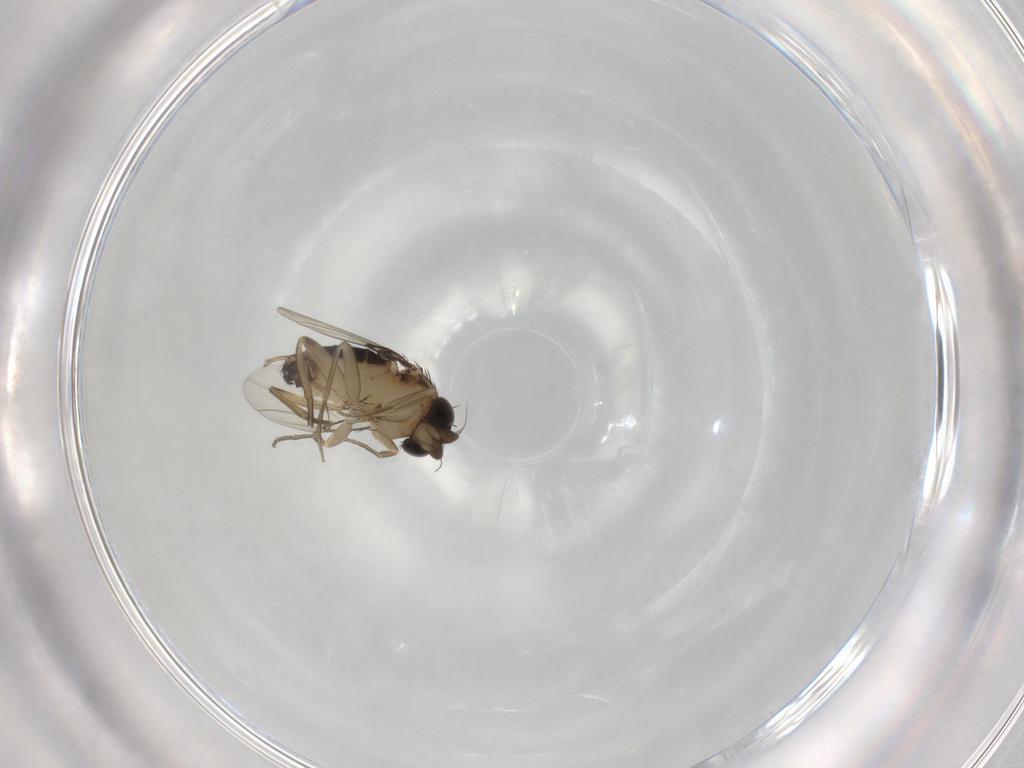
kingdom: Animalia
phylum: Arthropoda
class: Insecta
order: Diptera
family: Phoridae
